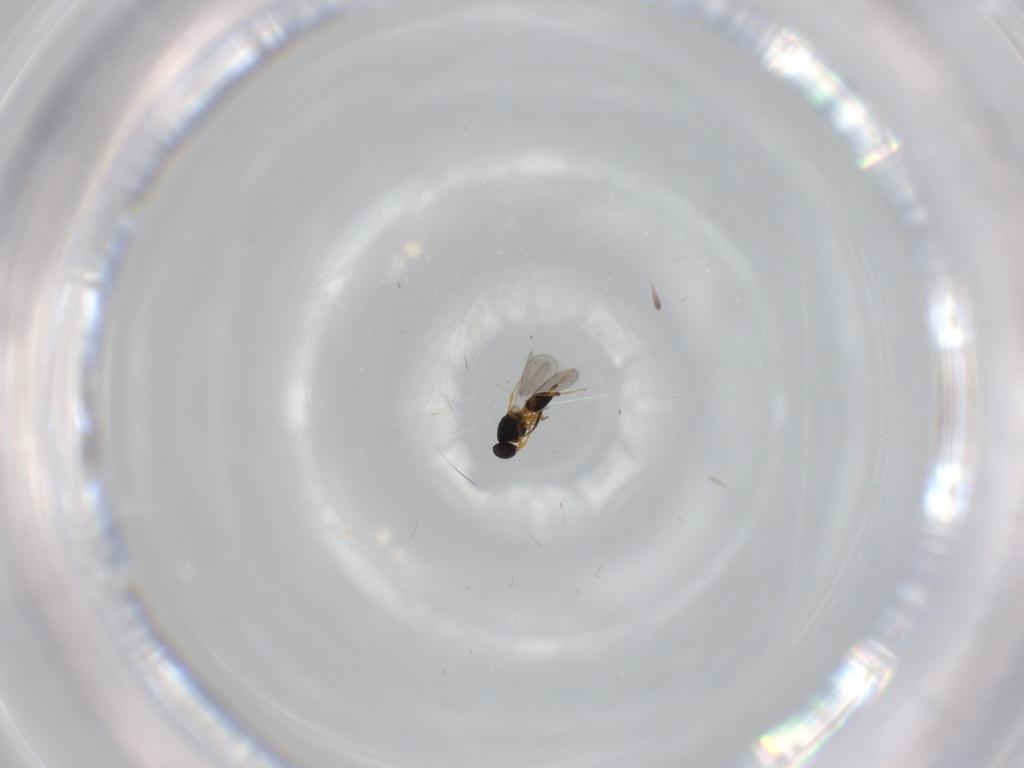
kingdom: Animalia
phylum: Arthropoda
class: Insecta
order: Hymenoptera
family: Platygastridae
